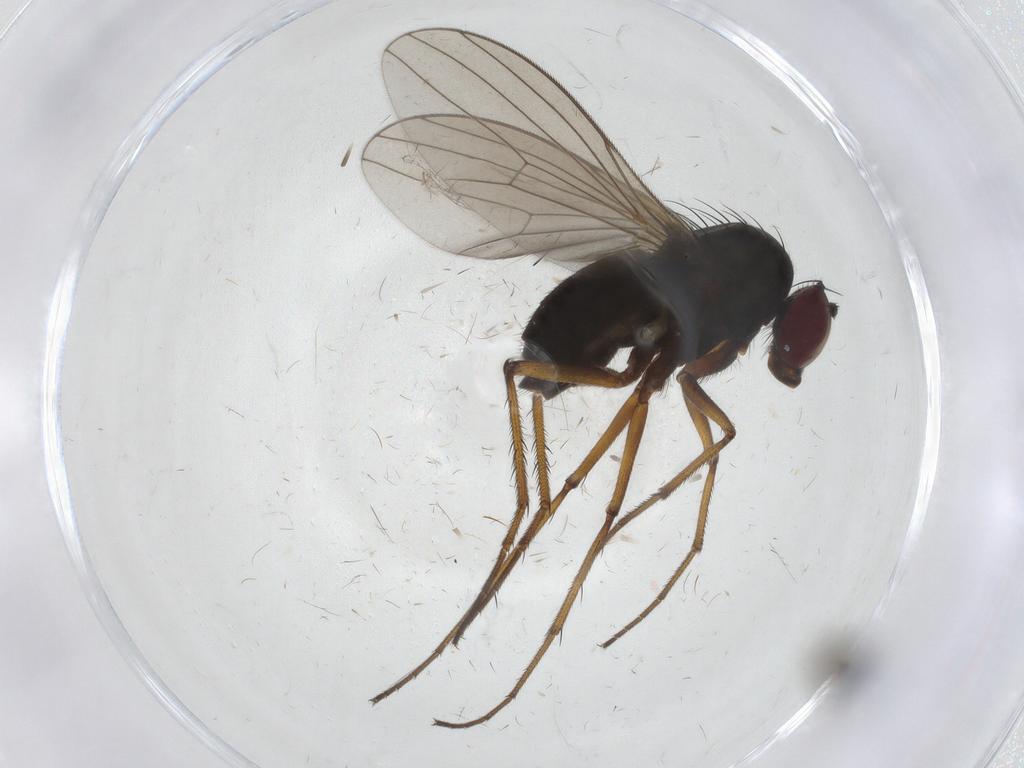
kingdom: Animalia
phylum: Arthropoda
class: Insecta
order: Diptera
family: Sciaridae
